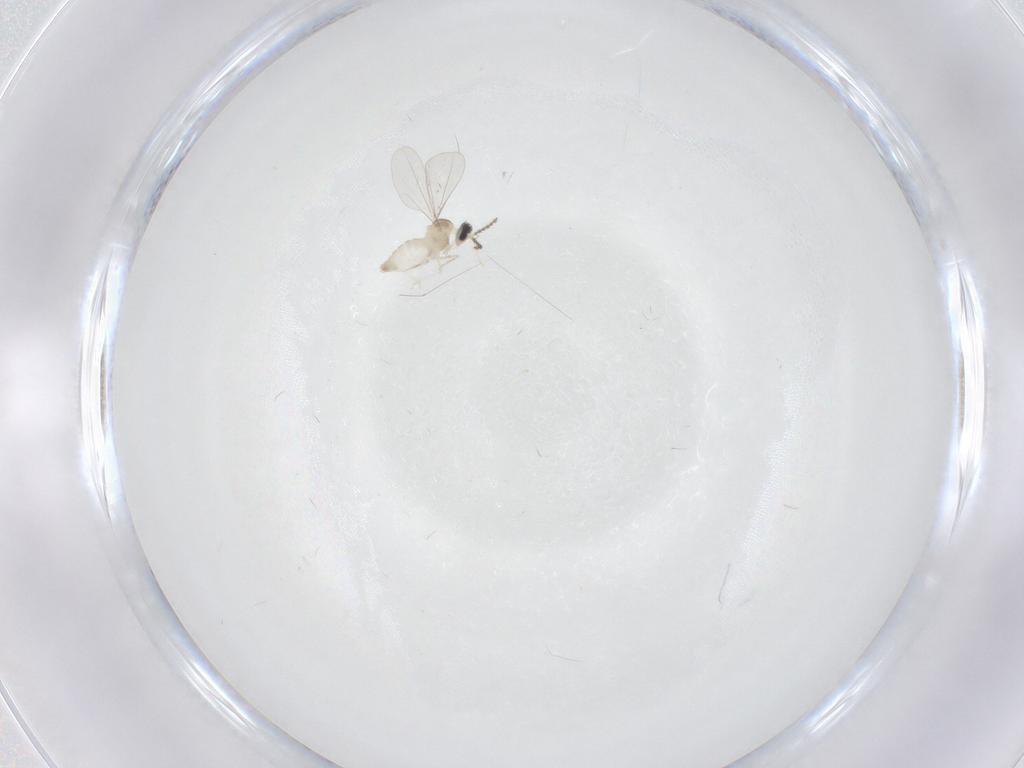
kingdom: Animalia
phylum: Arthropoda
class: Insecta
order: Diptera
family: Cecidomyiidae
